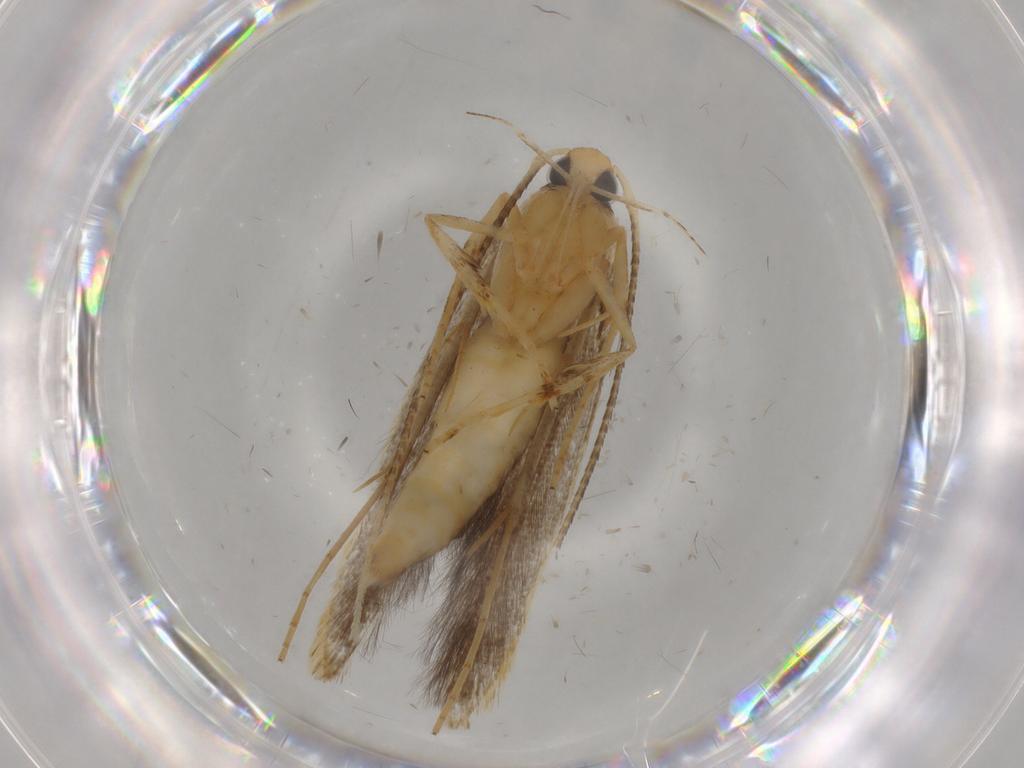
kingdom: Animalia
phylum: Arthropoda
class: Insecta
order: Lepidoptera
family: Pterolonchidae
